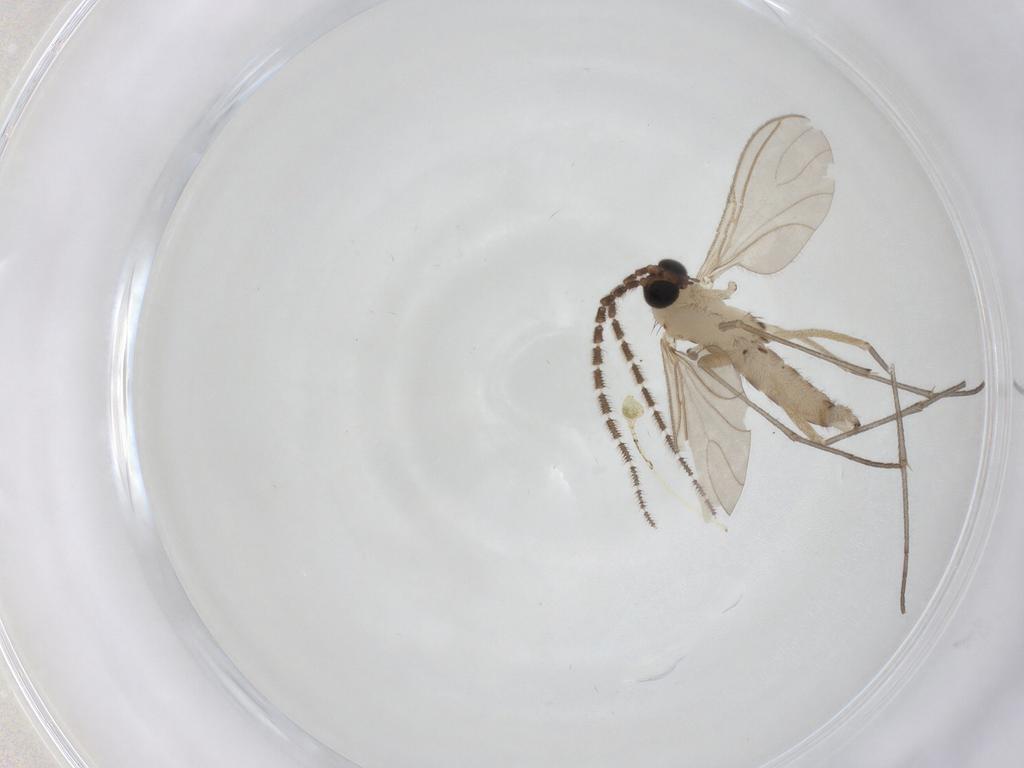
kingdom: Animalia
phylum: Arthropoda
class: Insecta
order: Diptera
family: Sciaridae
